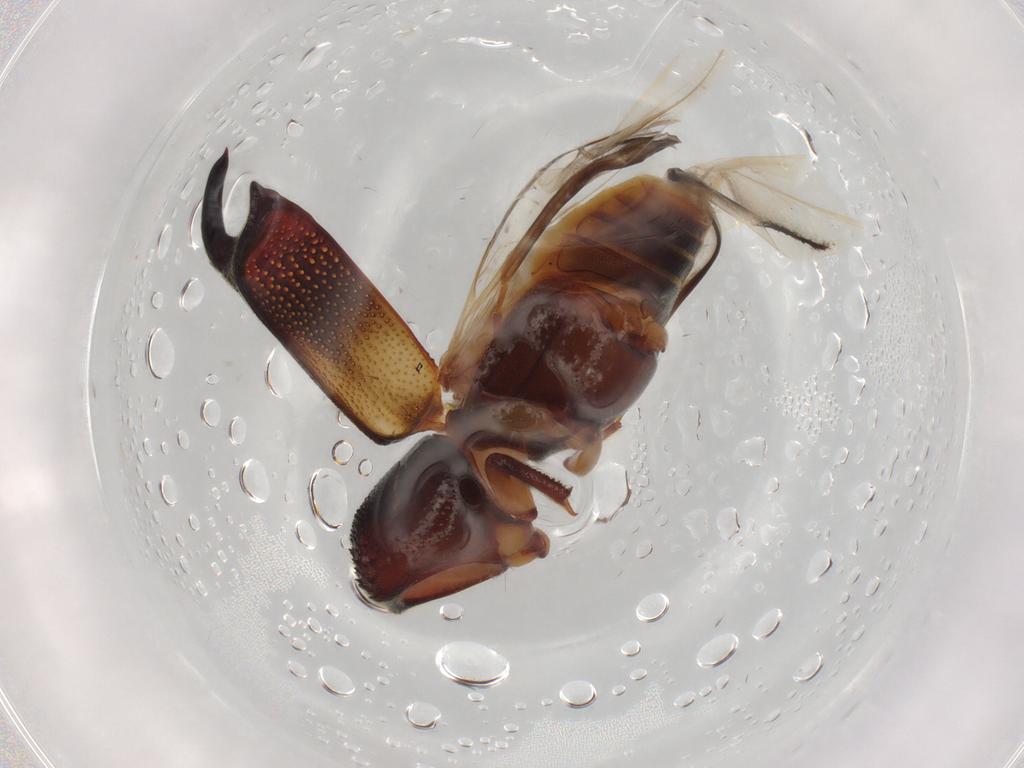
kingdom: Animalia
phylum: Arthropoda
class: Insecta
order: Coleoptera
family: Bostrichidae
